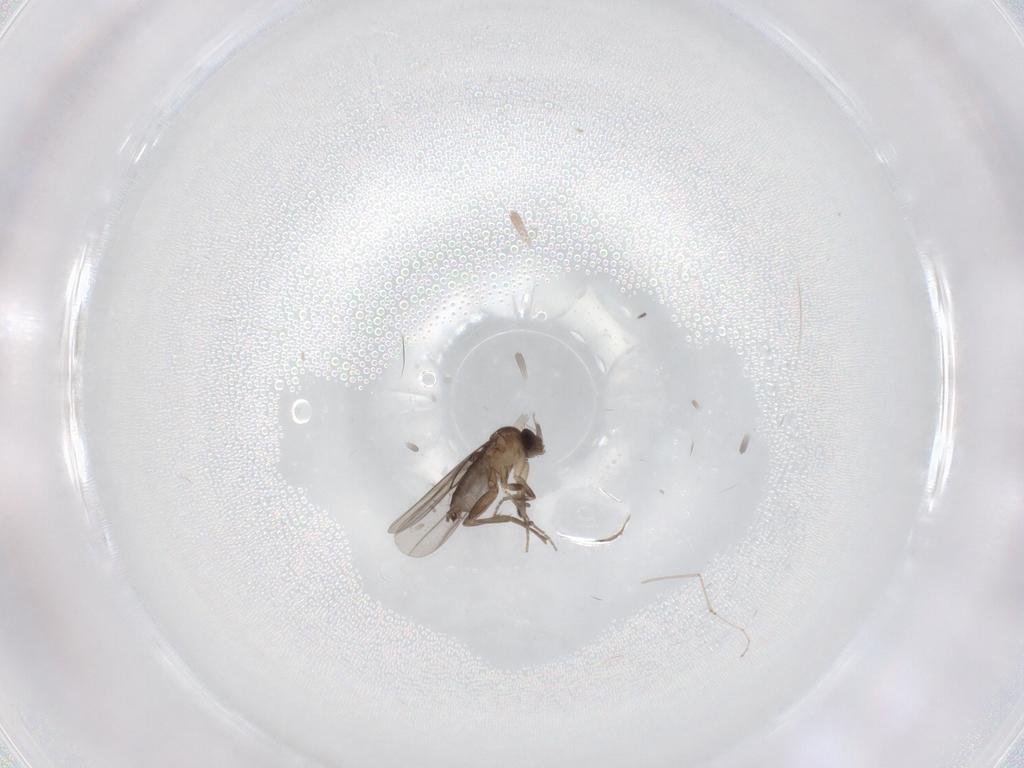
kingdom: Animalia
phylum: Arthropoda
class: Insecta
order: Diptera
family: Cecidomyiidae
